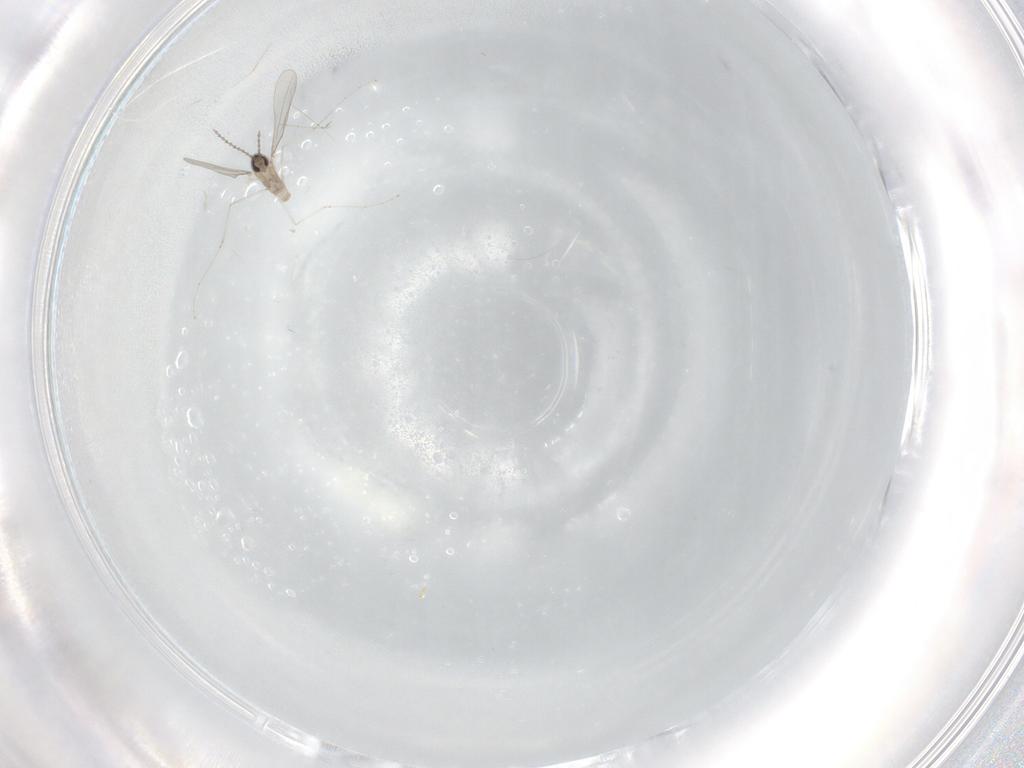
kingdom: Animalia
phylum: Arthropoda
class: Insecta
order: Diptera
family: Cecidomyiidae
